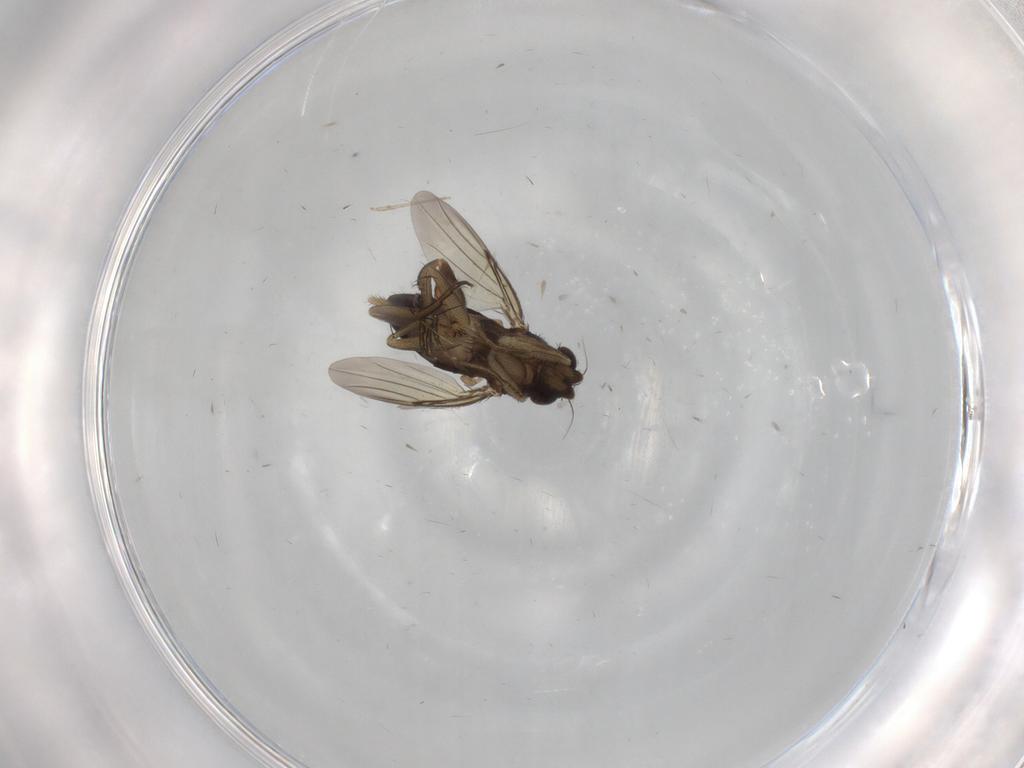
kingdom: Animalia
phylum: Arthropoda
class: Insecta
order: Diptera
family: Phoridae
